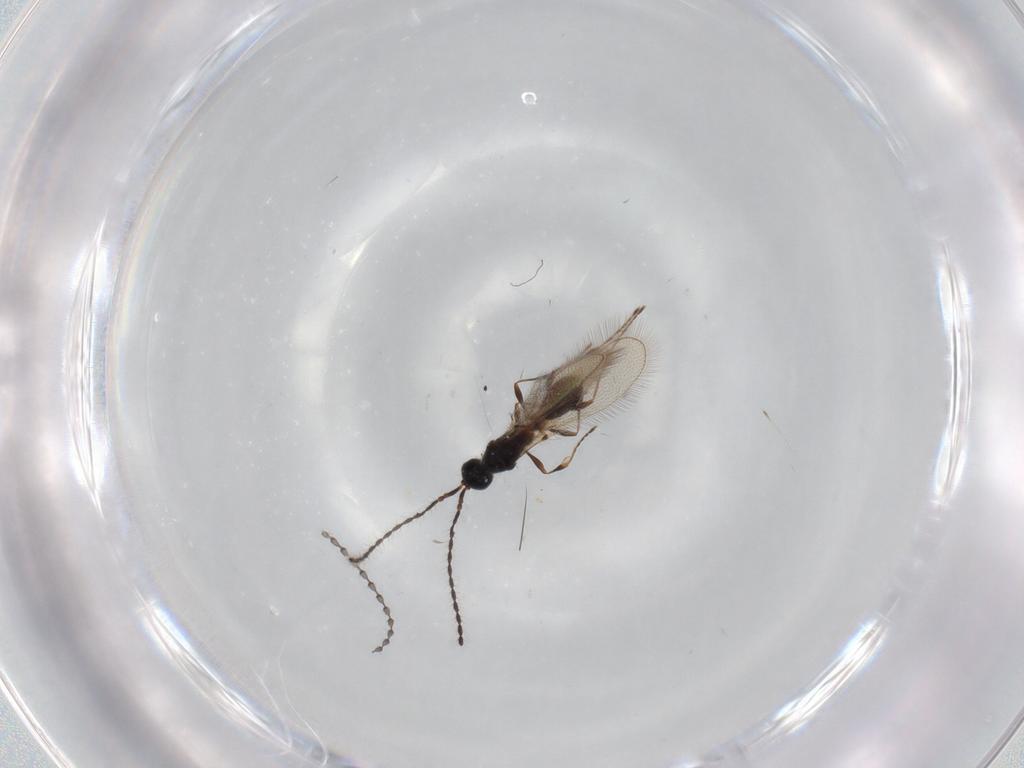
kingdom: Animalia
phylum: Arthropoda
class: Insecta
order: Hymenoptera
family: Diapriidae
